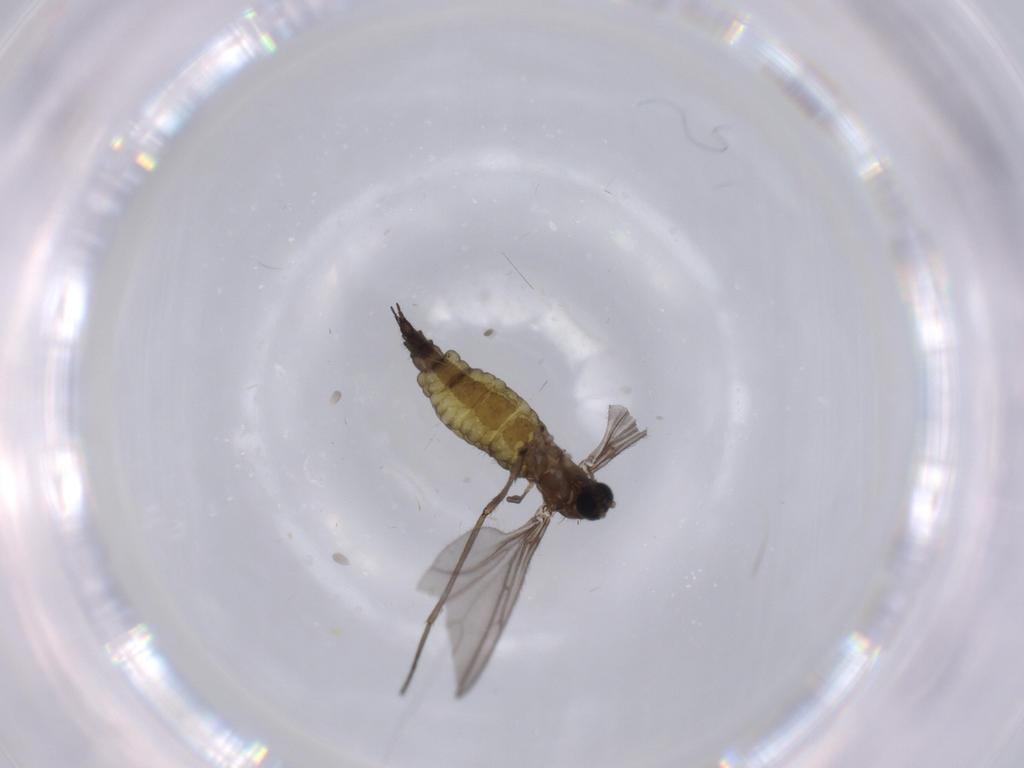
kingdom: Animalia
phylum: Arthropoda
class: Insecta
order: Diptera
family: Sciaridae
